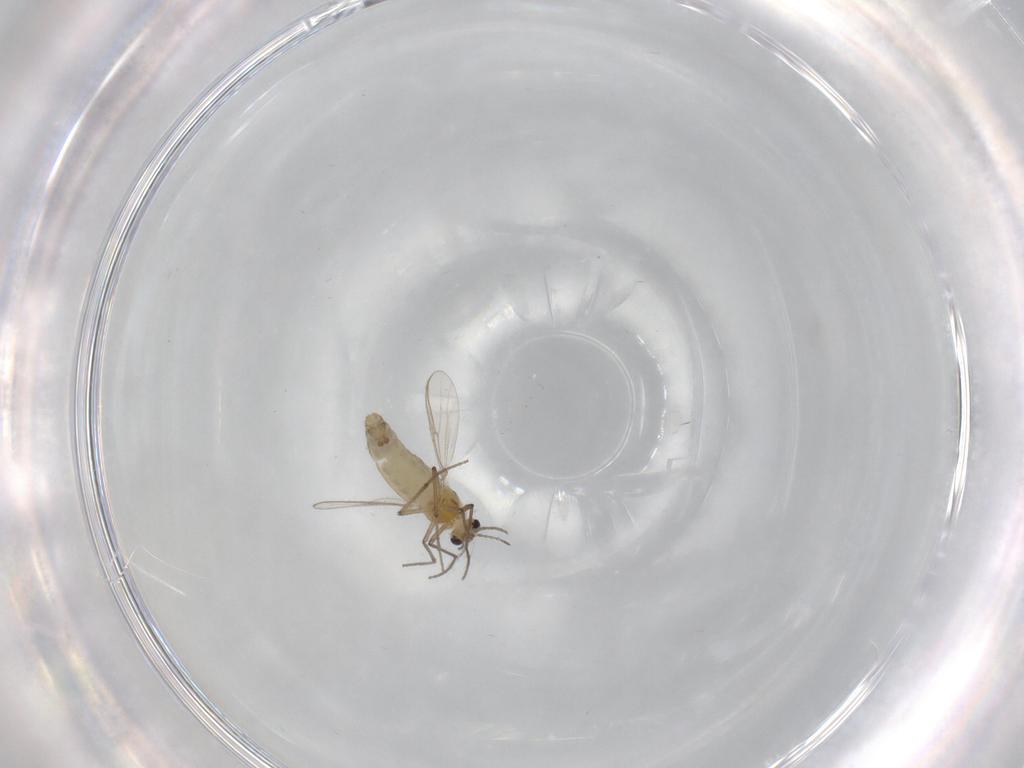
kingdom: Animalia
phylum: Arthropoda
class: Insecta
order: Diptera
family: Chironomidae
